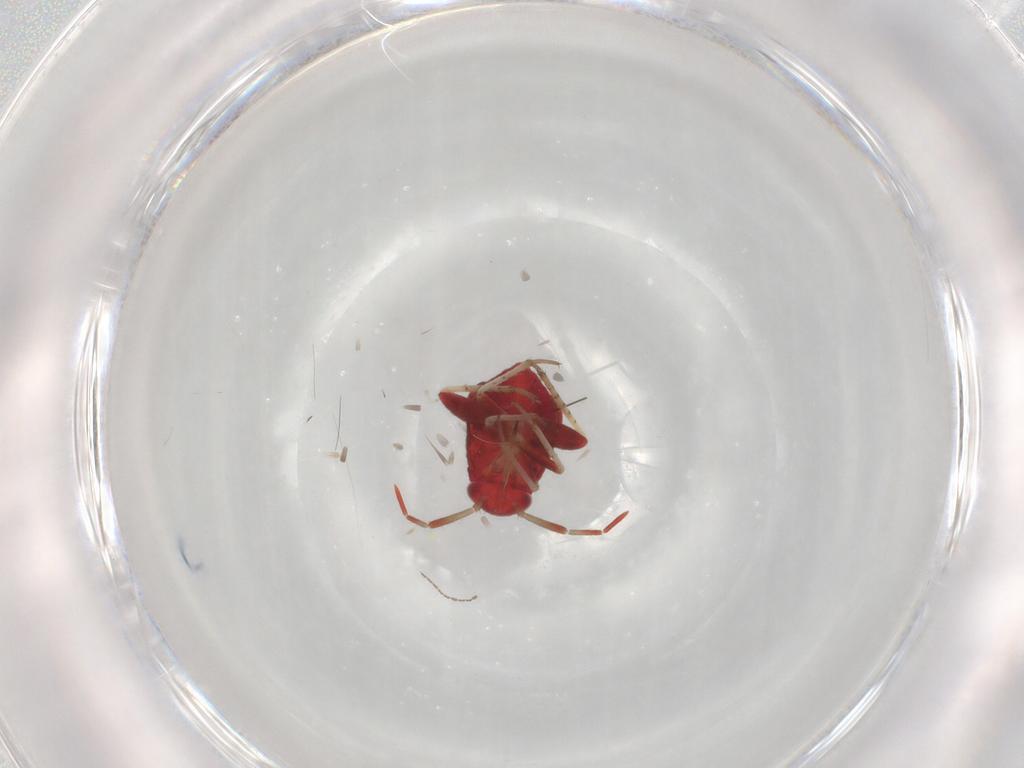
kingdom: Animalia
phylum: Arthropoda
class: Insecta
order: Hemiptera
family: Miridae
